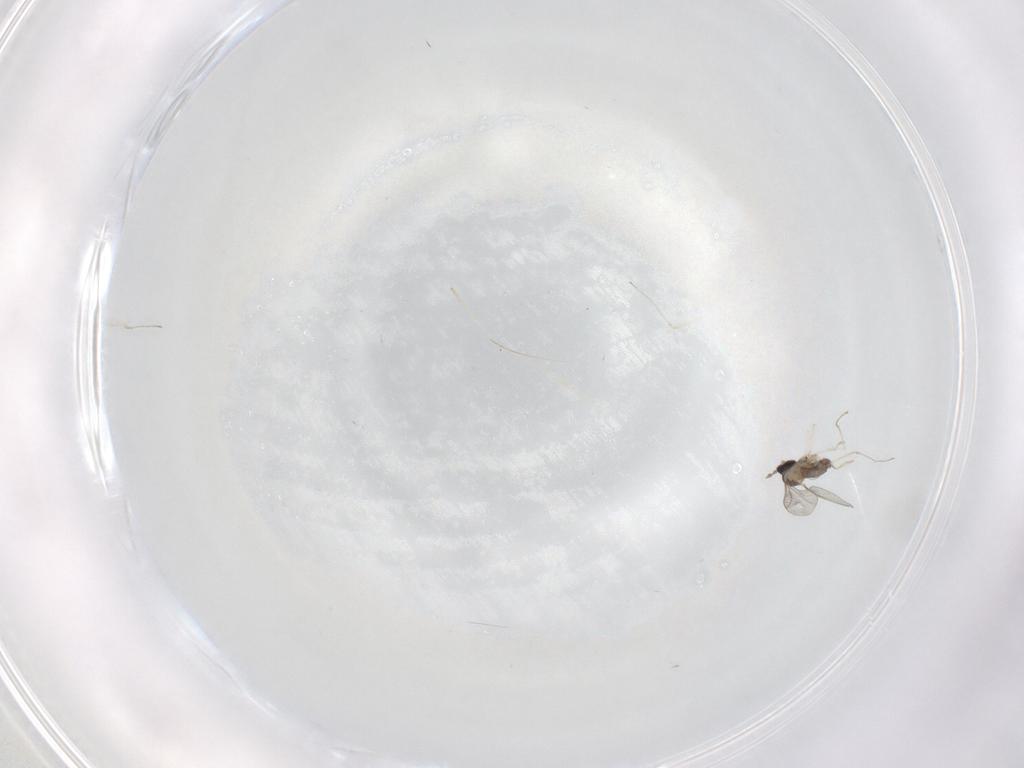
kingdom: Animalia
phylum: Arthropoda
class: Insecta
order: Diptera
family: Cecidomyiidae
